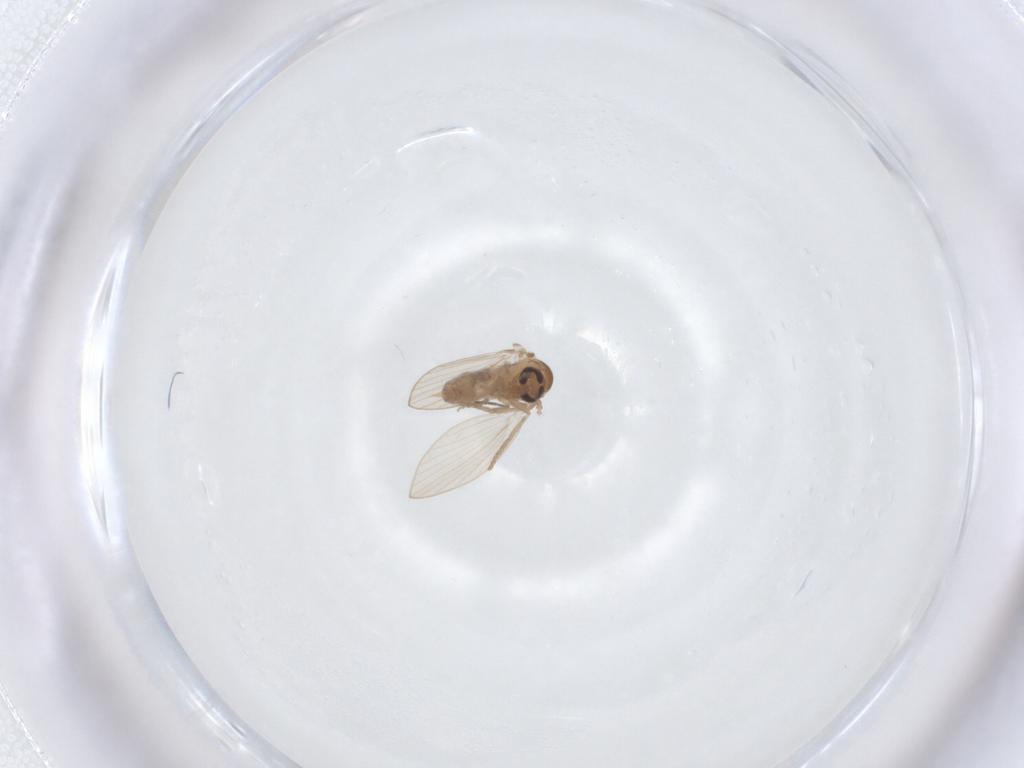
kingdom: Animalia
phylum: Arthropoda
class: Insecta
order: Diptera
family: Psychodidae
